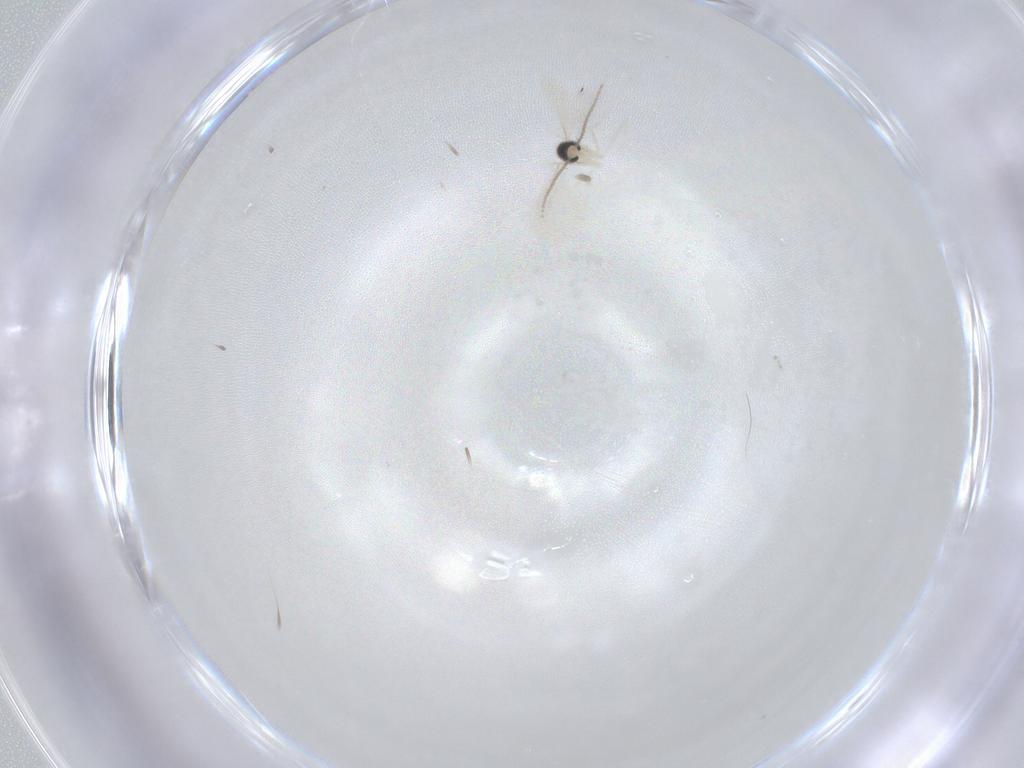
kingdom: Animalia
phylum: Arthropoda
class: Insecta
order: Diptera
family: Cecidomyiidae
